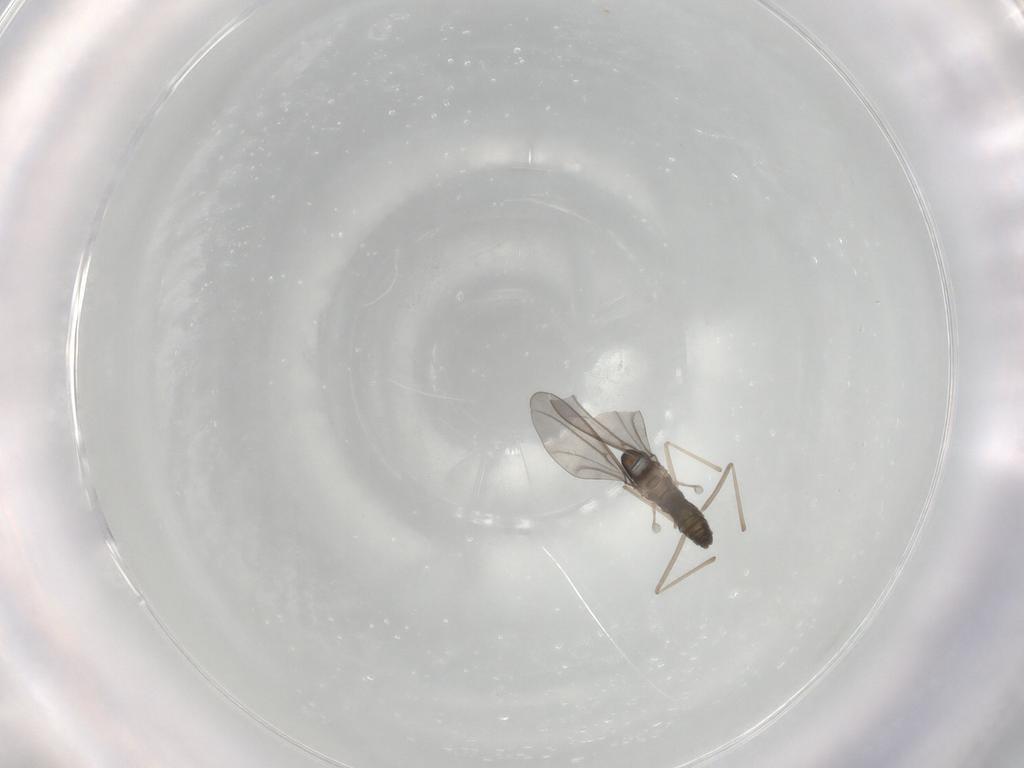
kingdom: Animalia
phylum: Arthropoda
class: Insecta
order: Diptera
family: Cecidomyiidae
